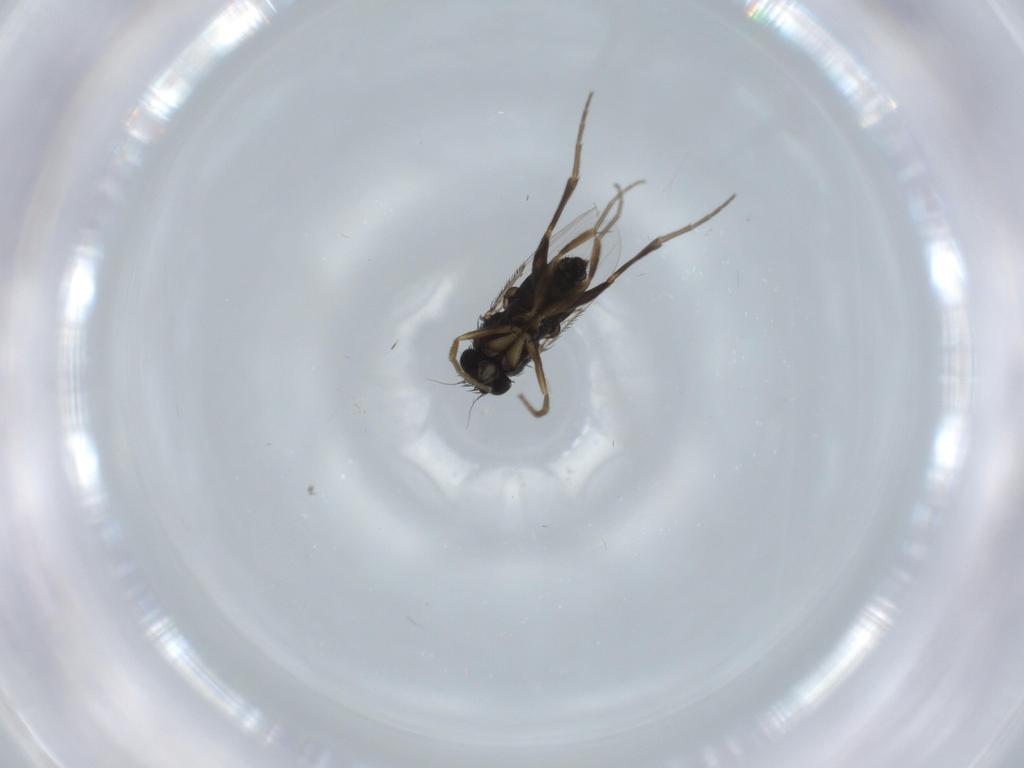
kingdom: Animalia
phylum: Arthropoda
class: Insecta
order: Diptera
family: Phoridae
